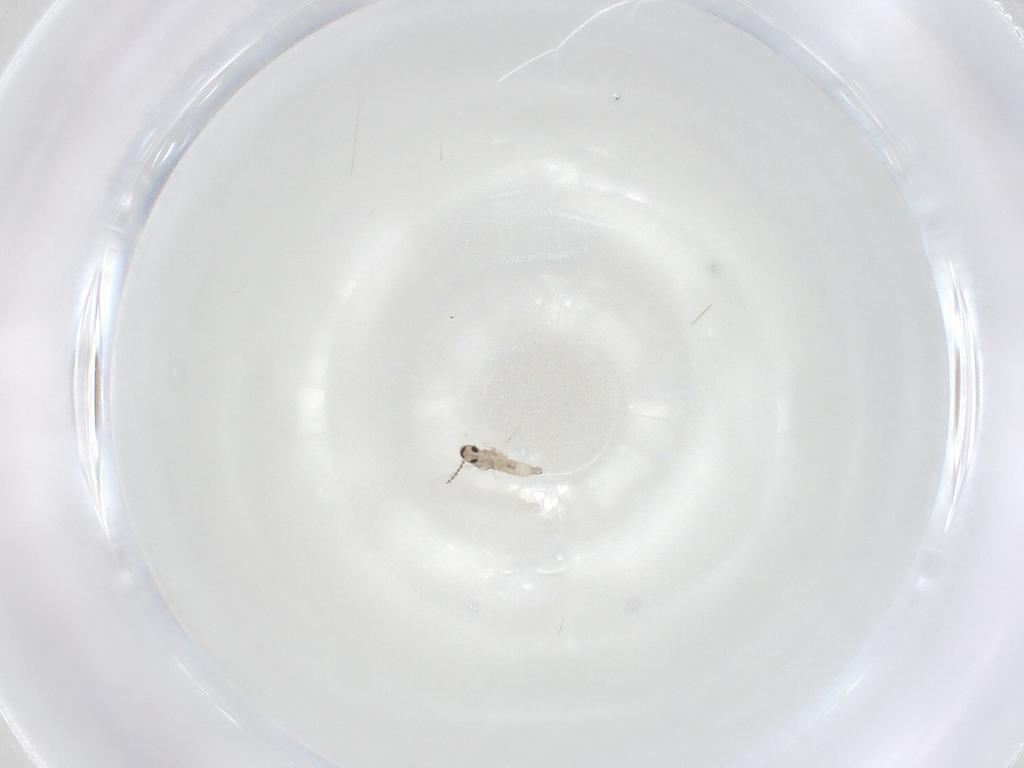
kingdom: Animalia
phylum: Arthropoda
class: Insecta
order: Diptera
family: Cecidomyiidae
